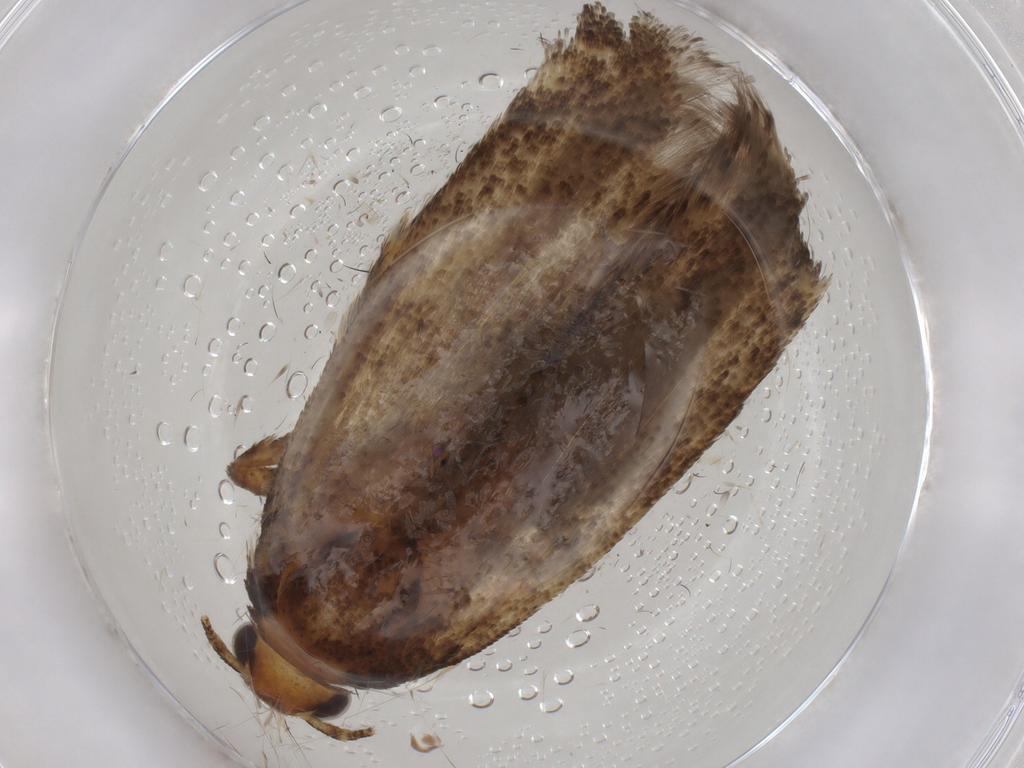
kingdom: Animalia
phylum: Arthropoda
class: Insecta
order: Lepidoptera
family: Gelechiidae
